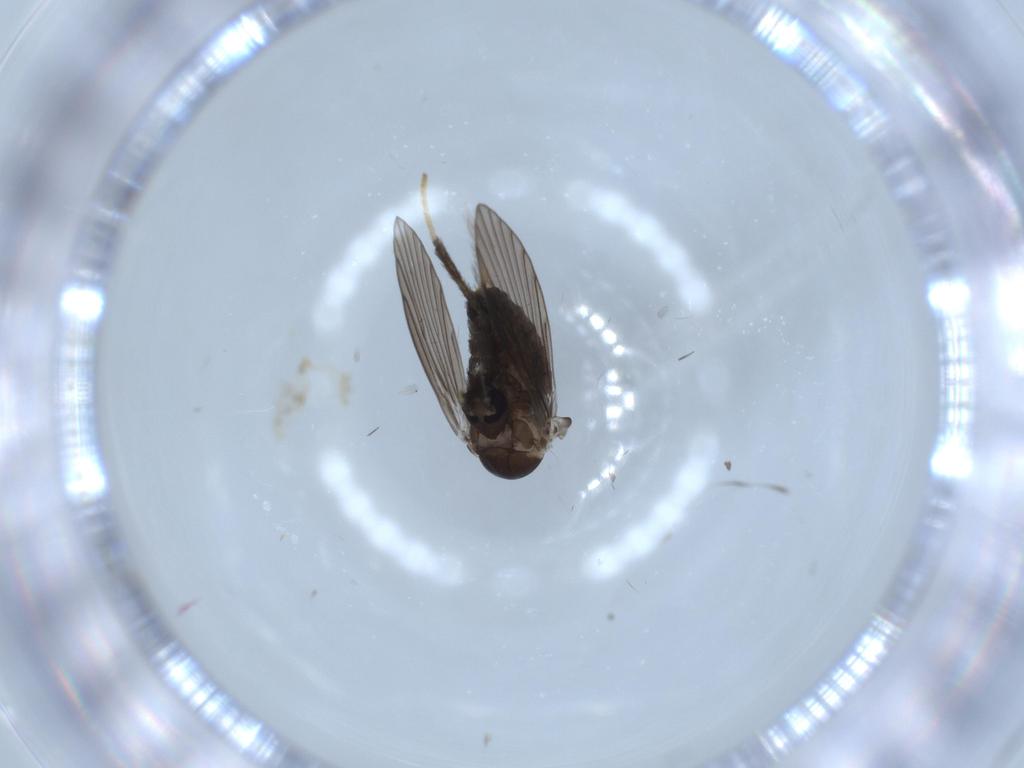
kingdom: Animalia
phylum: Arthropoda
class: Insecta
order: Diptera
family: Psychodidae
